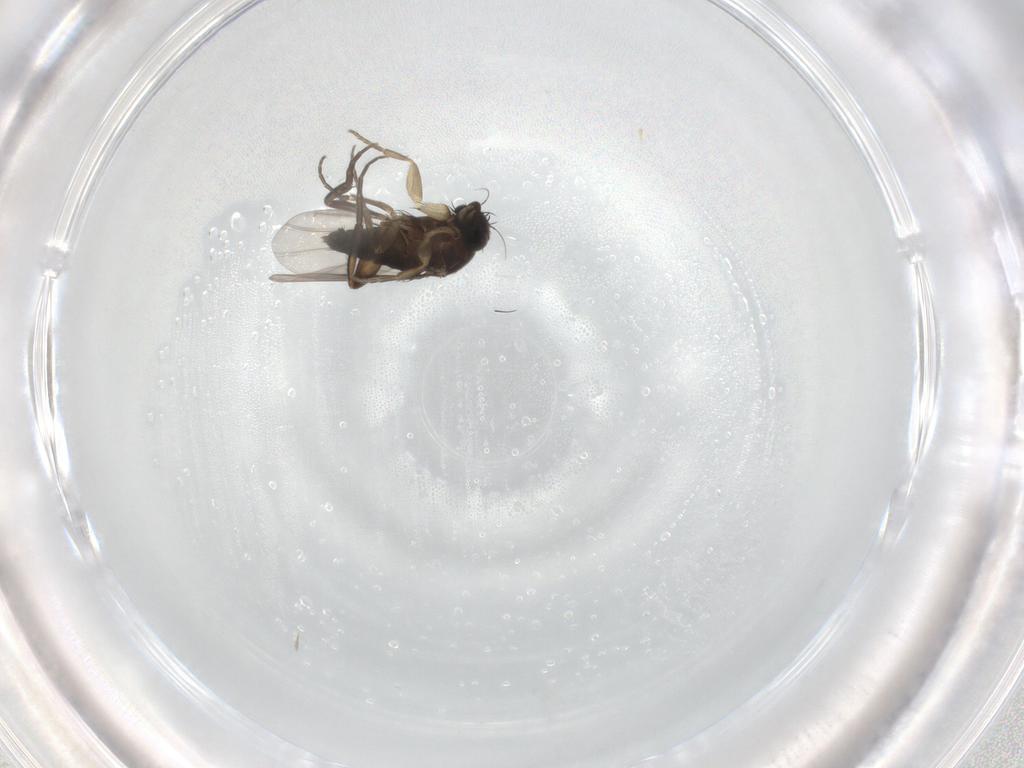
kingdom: Animalia
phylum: Arthropoda
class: Insecta
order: Diptera
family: Phoridae
